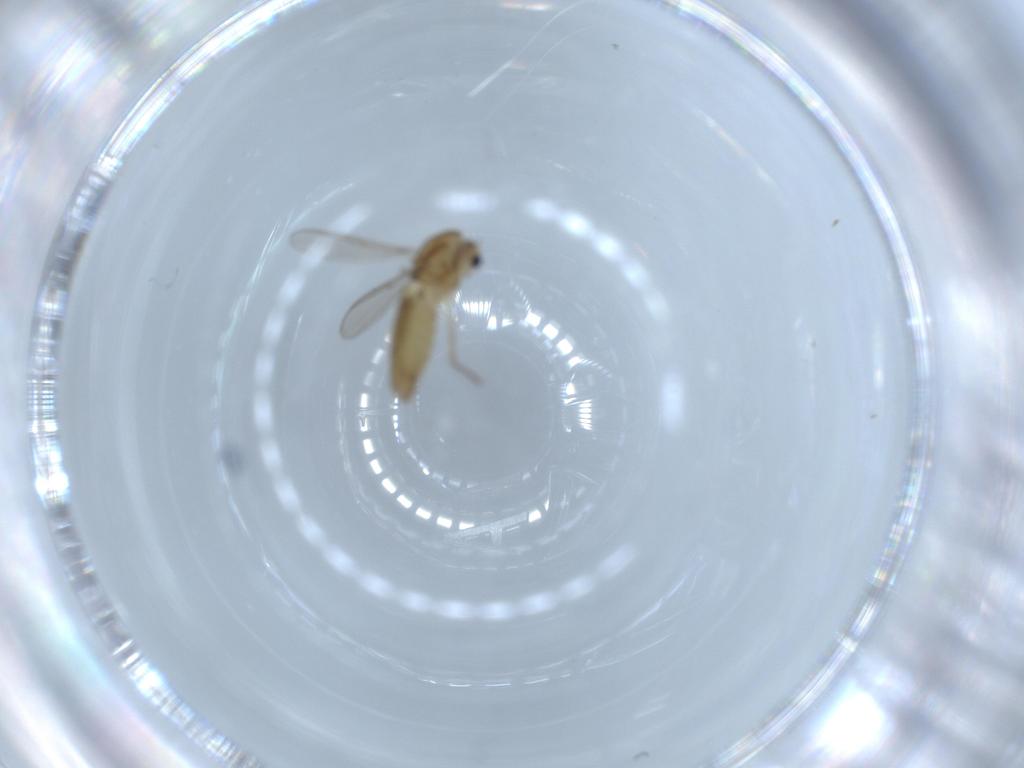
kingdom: Animalia
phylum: Arthropoda
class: Insecta
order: Diptera
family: Chironomidae
